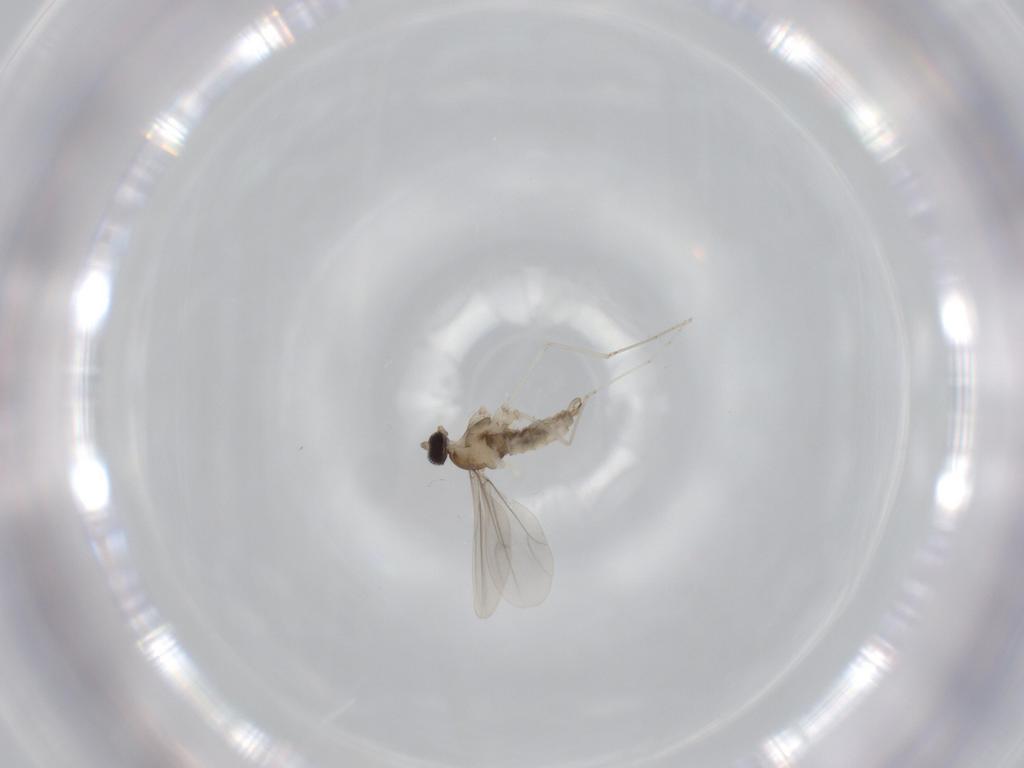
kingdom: Animalia
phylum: Arthropoda
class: Insecta
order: Diptera
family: Cecidomyiidae
